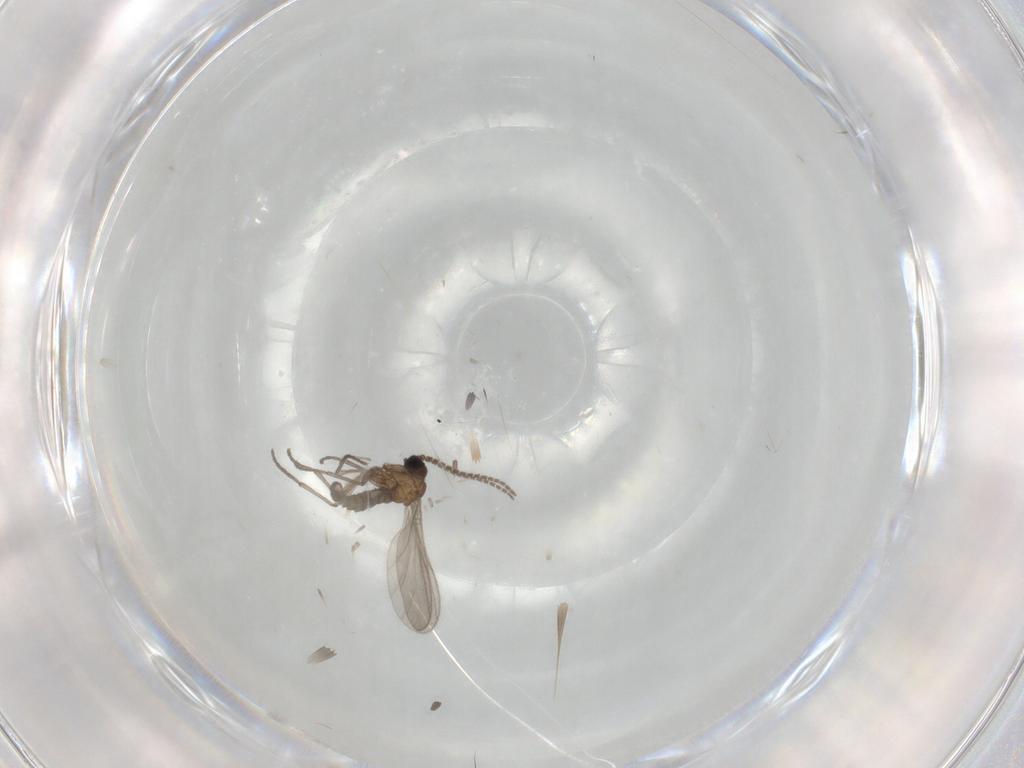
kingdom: Animalia
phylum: Arthropoda
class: Insecta
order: Diptera
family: Sciaridae
